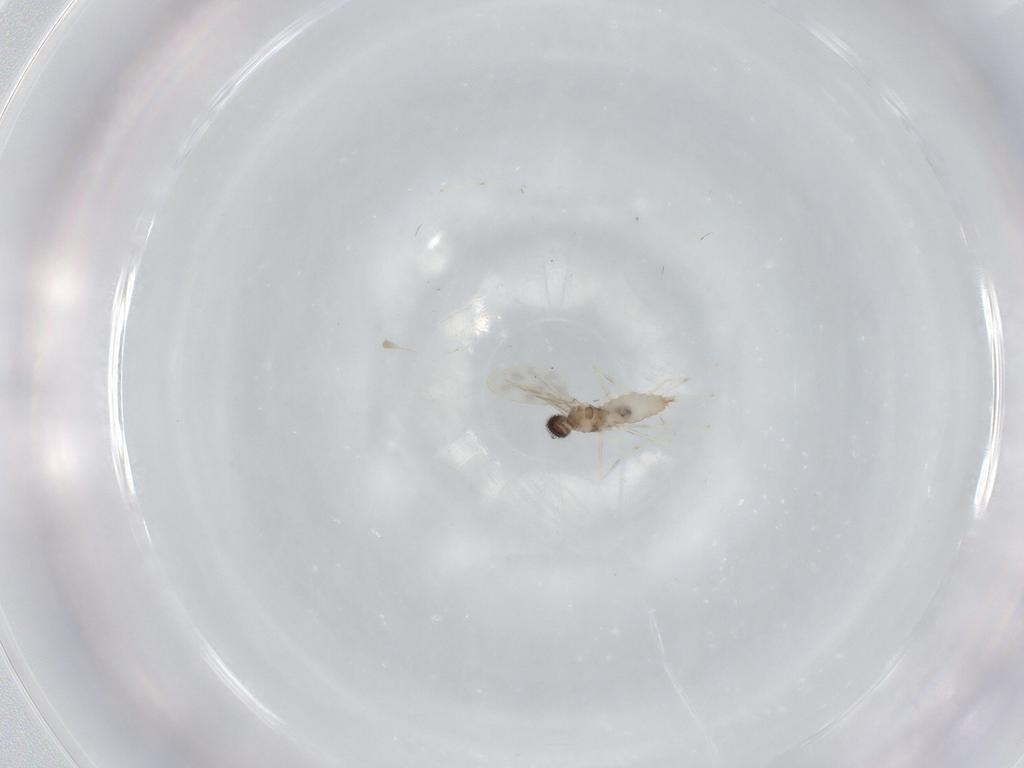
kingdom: Animalia
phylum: Arthropoda
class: Insecta
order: Diptera
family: Cecidomyiidae
